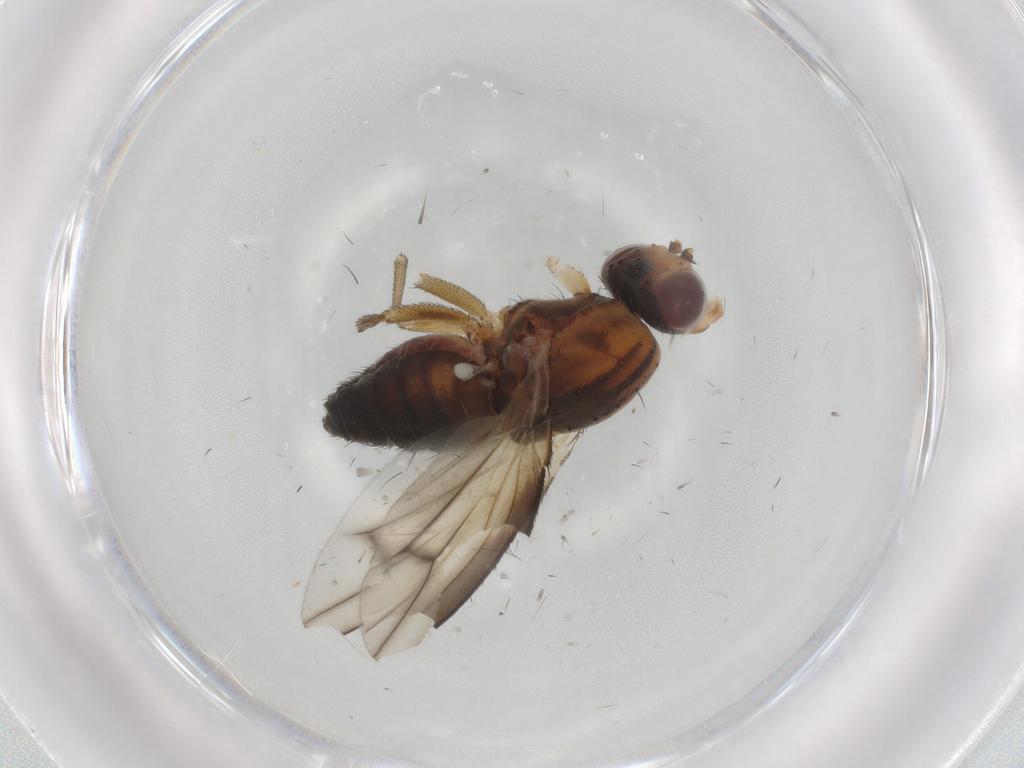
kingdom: Animalia
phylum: Arthropoda
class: Insecta
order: Diptera
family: Heleomyzidae
